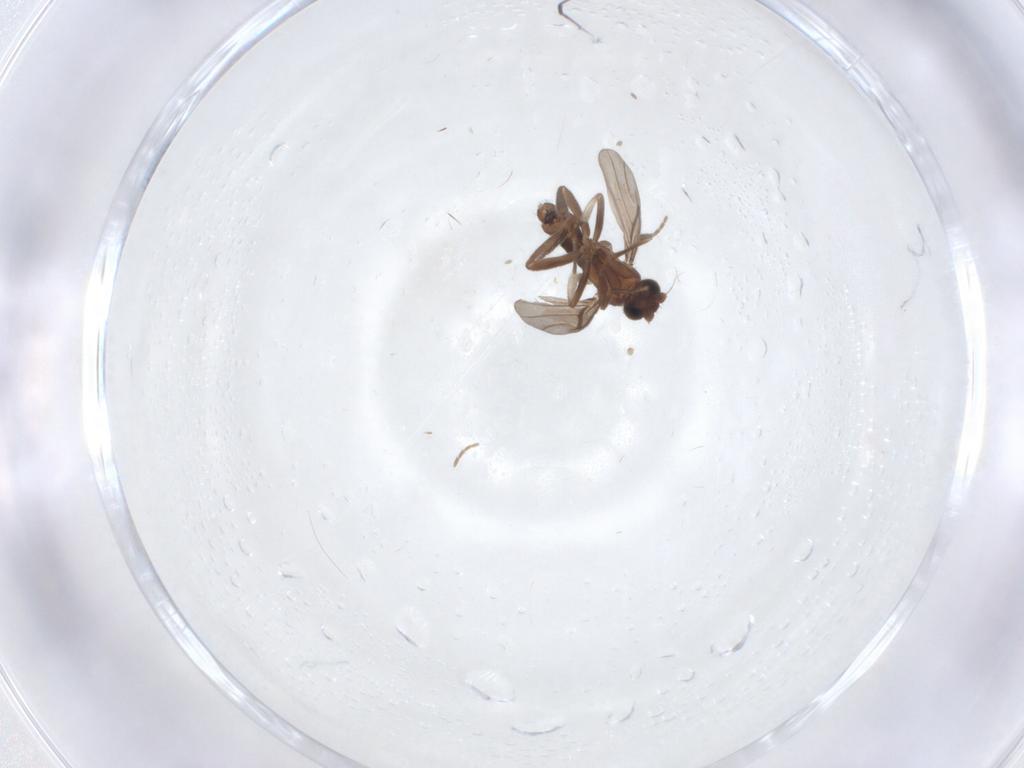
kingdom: Animalia
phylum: Arthropoda
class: Insecta
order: Diptera
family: Phoridae
